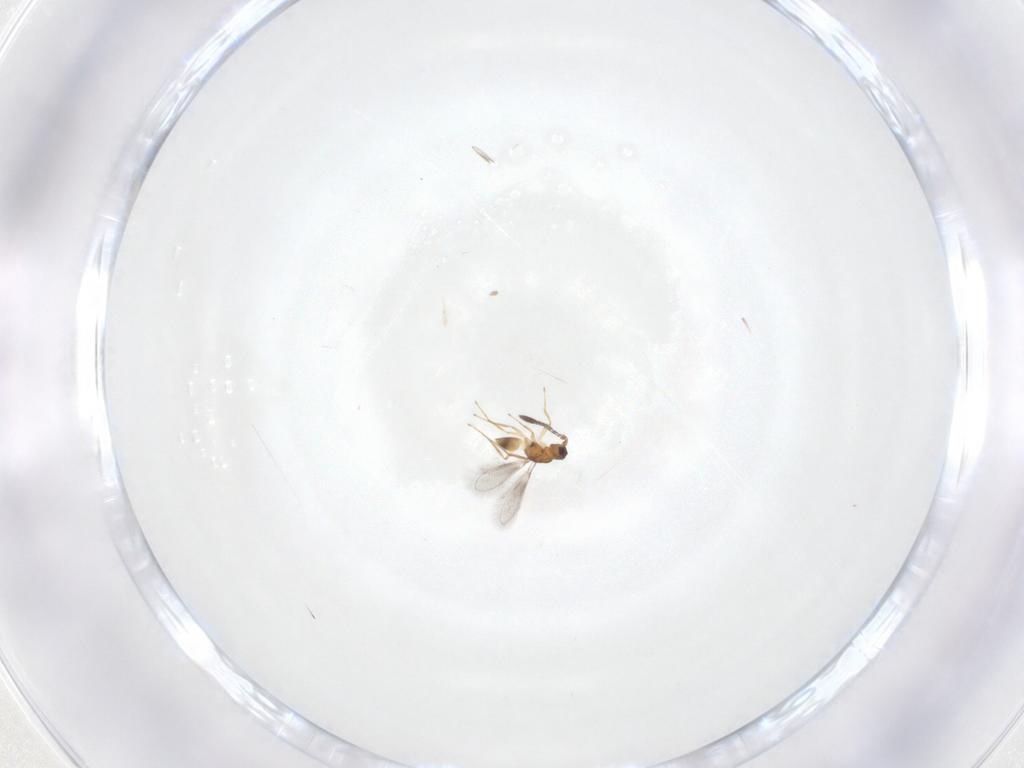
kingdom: Animalia
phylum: Arthropoda
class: Insecta
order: Hymenoptera
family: Mymaridae
